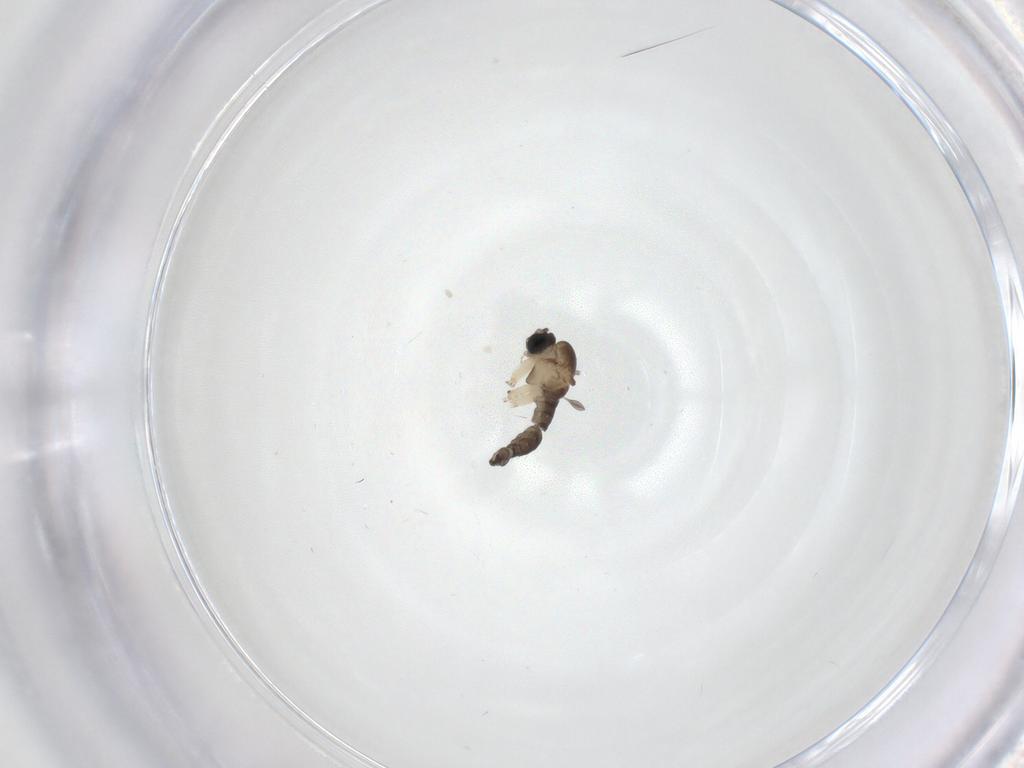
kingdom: Animalia
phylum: Arthropoda
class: Insecta
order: Diptera
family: Sciaridae
